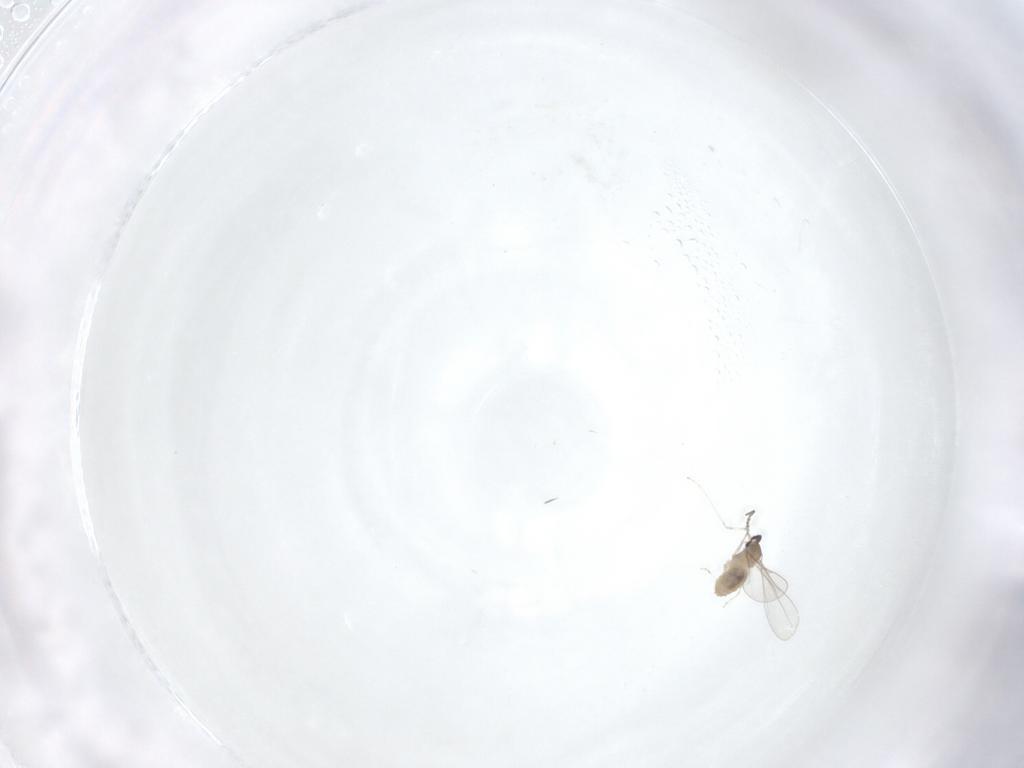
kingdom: Animalia
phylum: Arthropoda
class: Insecta
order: Diptera
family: Cecidomyiidae
